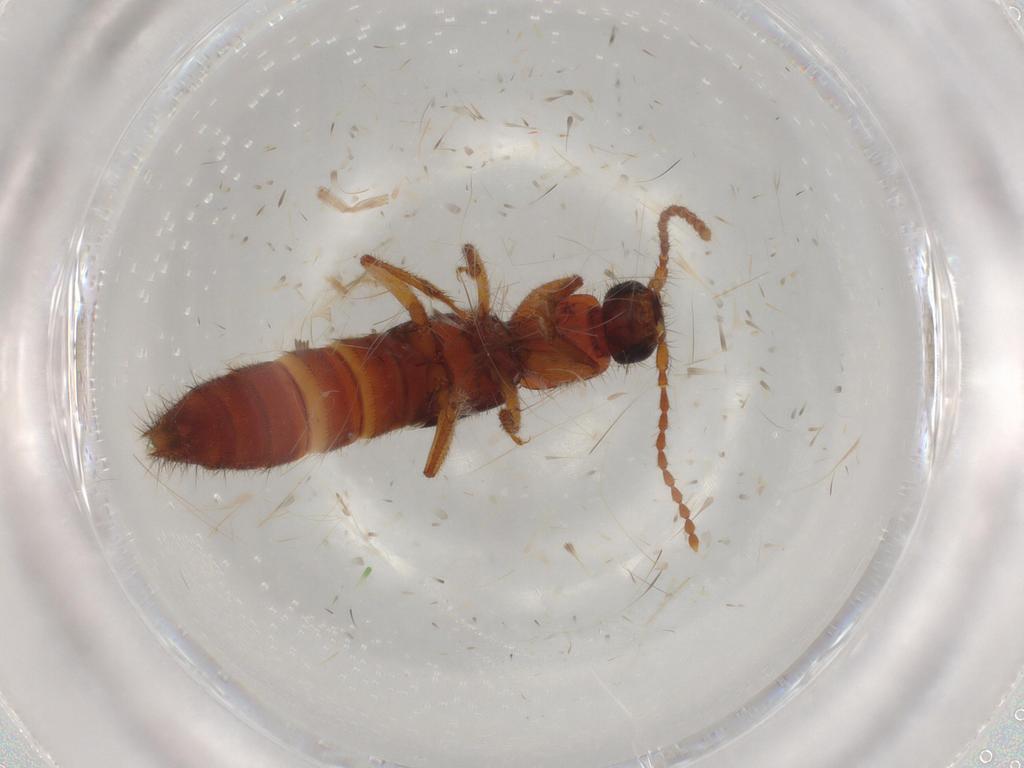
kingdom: Animalia
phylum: Arthropoda
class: Insecta
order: Coleoptera
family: Staphylinidae
